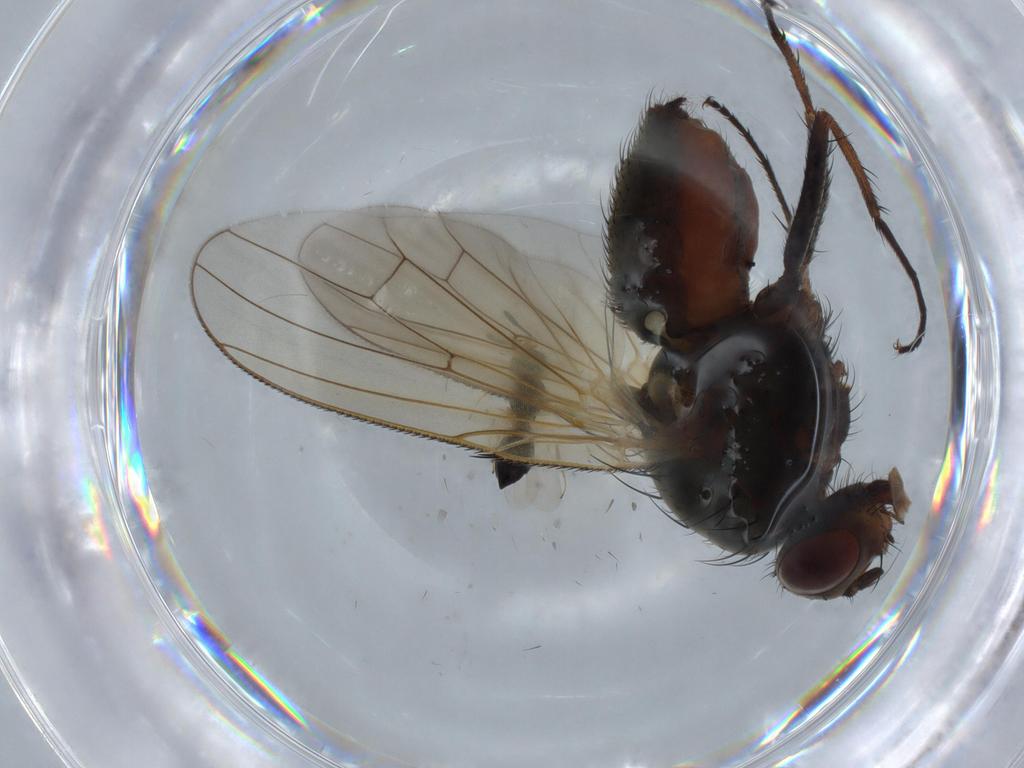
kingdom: Animalia
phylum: Arthropoda
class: Insecta
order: Diptera
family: Anthomyiidae
